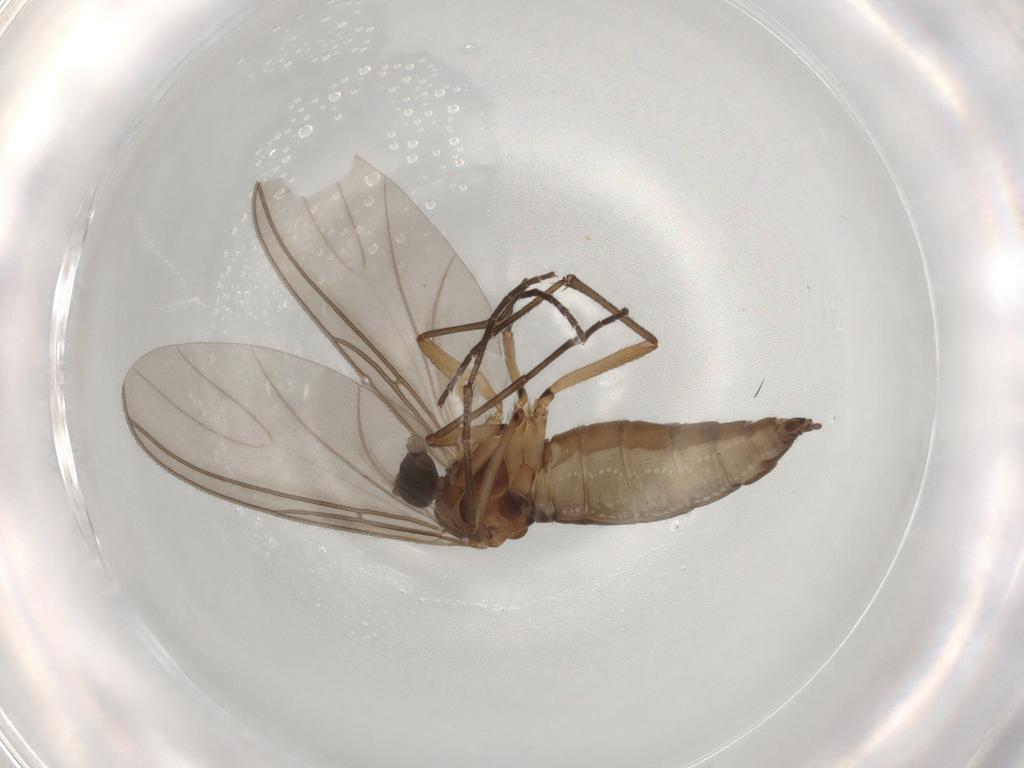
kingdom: Animalia
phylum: Arthropoda
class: Insecta
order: Diptera
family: Sciaridae
